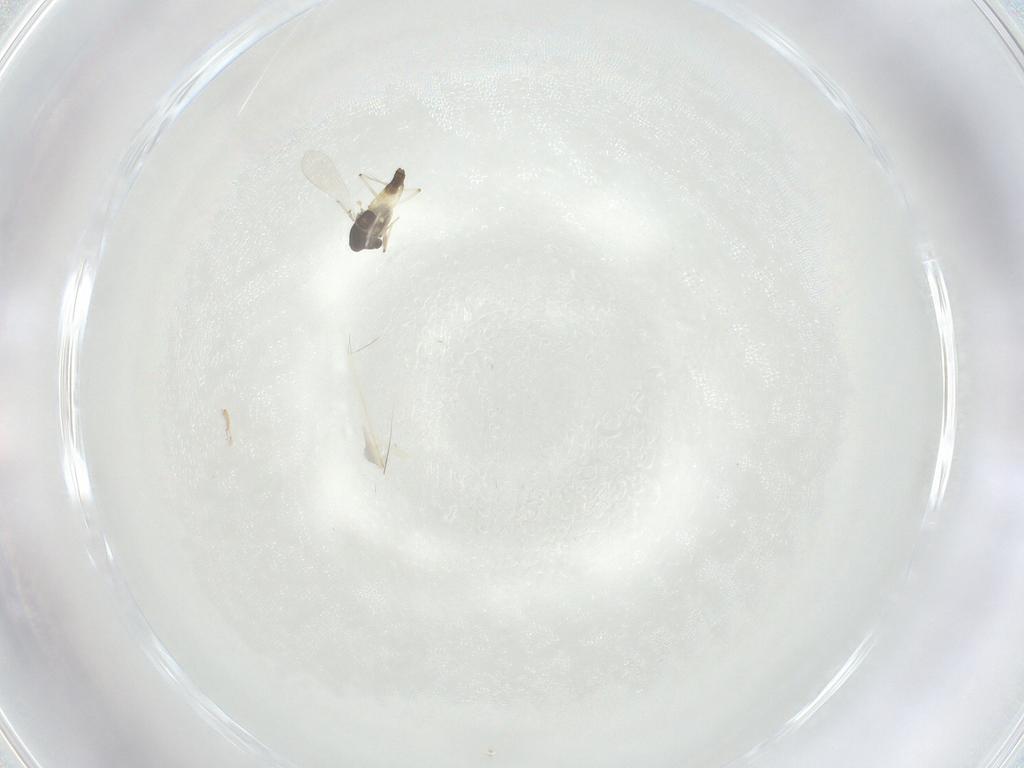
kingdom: Animalia
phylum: Arthropoda
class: Insecta
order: Diptera
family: Chironomidae
